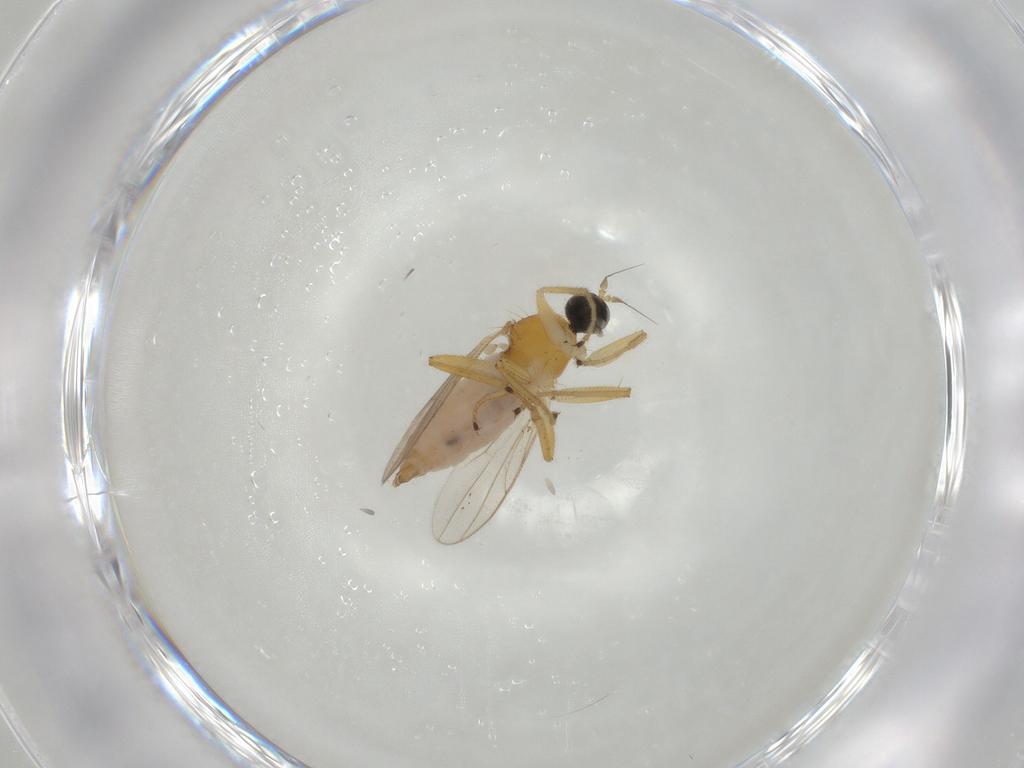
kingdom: Animalia
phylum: Arthropoda
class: Insecta
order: Diptera
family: Hybotidae
